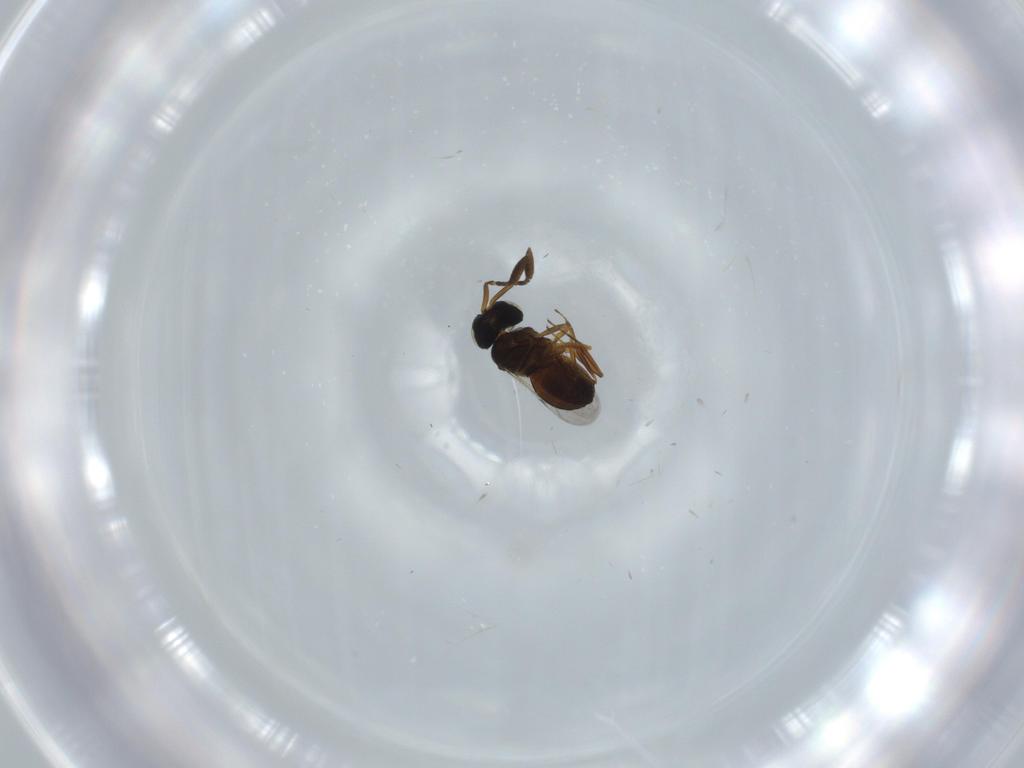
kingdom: Animalia
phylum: Arthropoda
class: Insecta
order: Hymenoptera
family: Scelionidae
